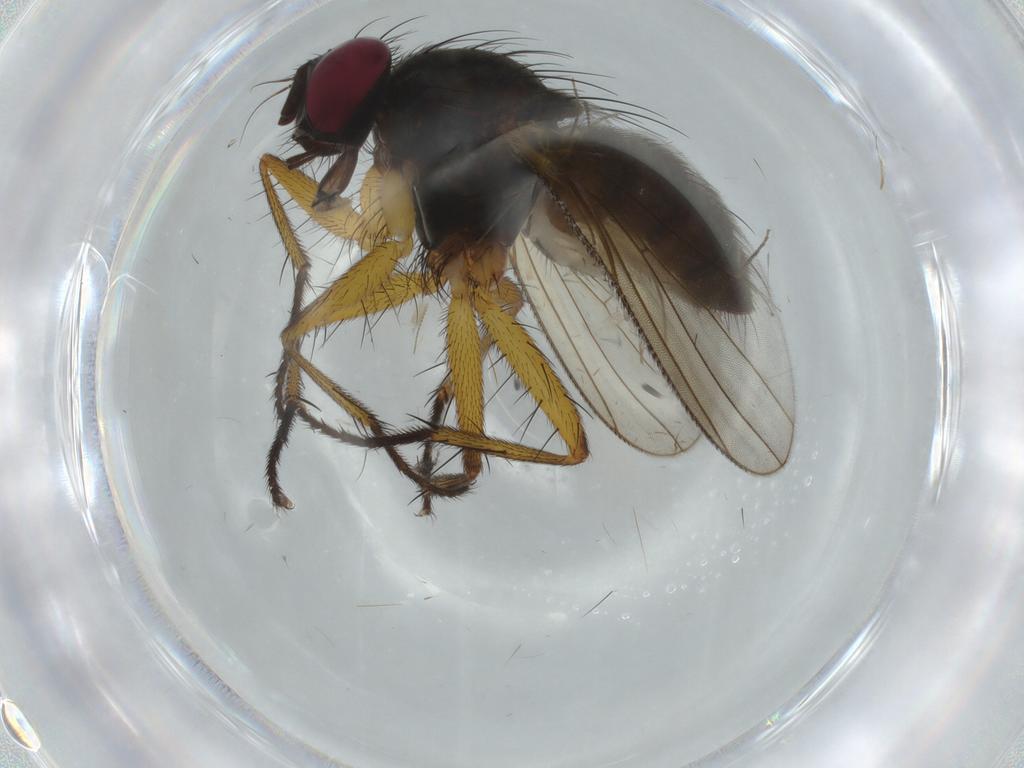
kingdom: Animalia
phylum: Arthropoda
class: Insecta
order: Diptera
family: Muscidae
